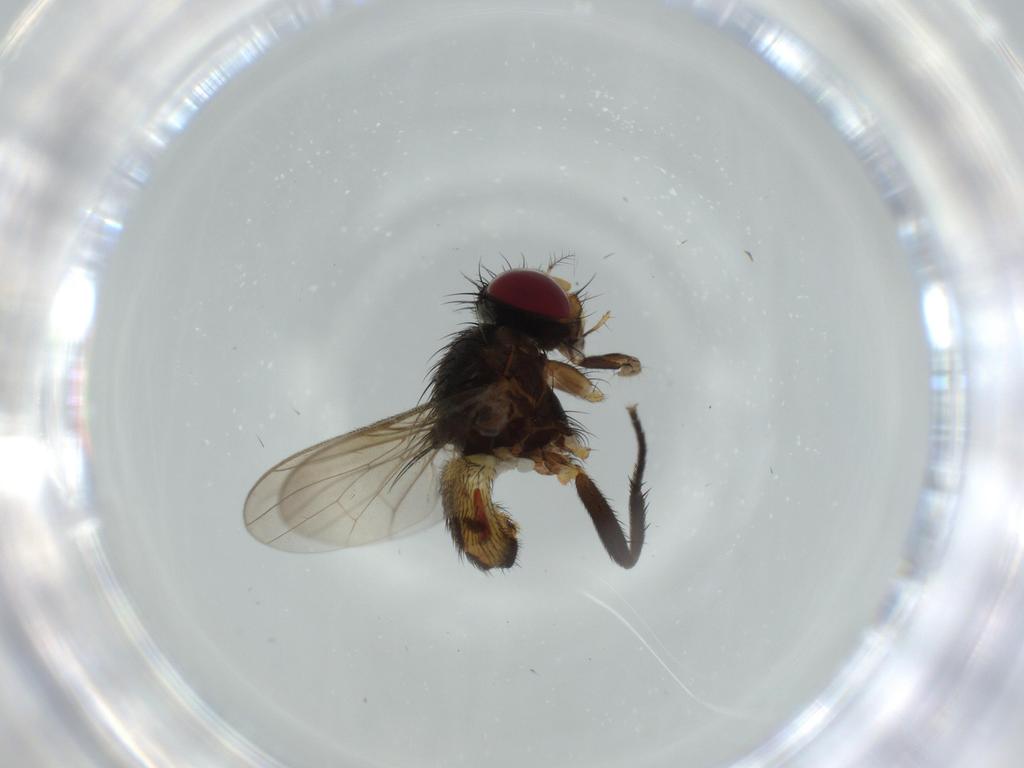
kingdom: Animalia
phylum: Arthropoda
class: Insecta
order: Diptera
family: Anthomyiidae
